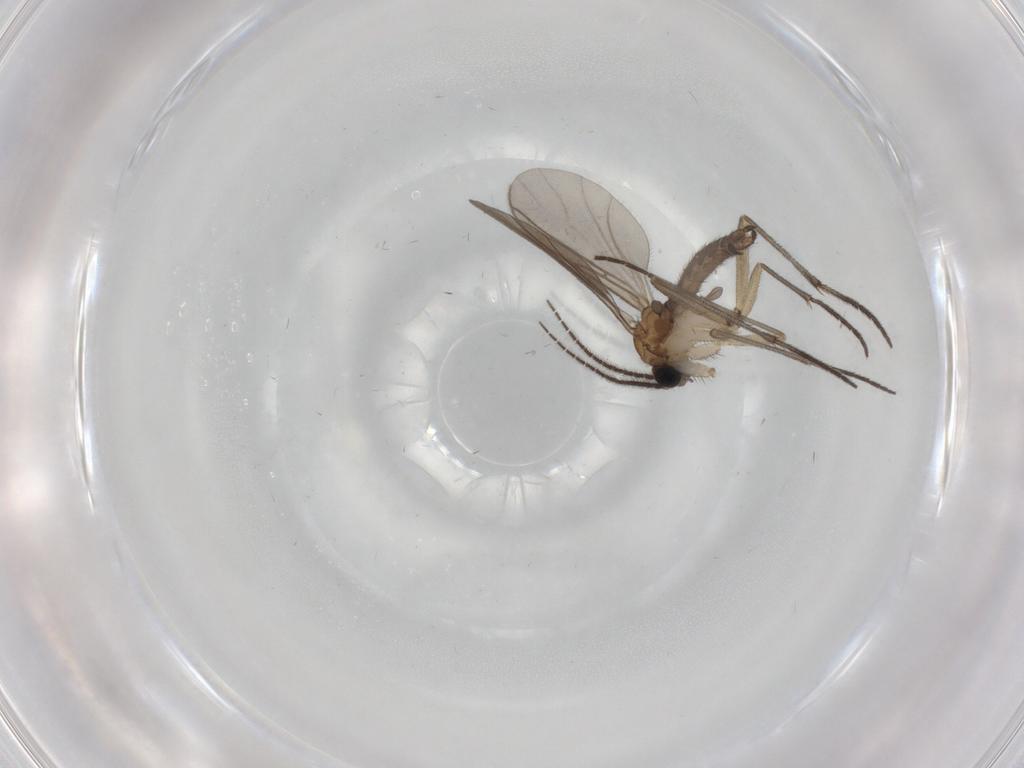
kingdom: Animalia
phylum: Arthropoda
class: Insecta
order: Diptera
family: Sciaridae
